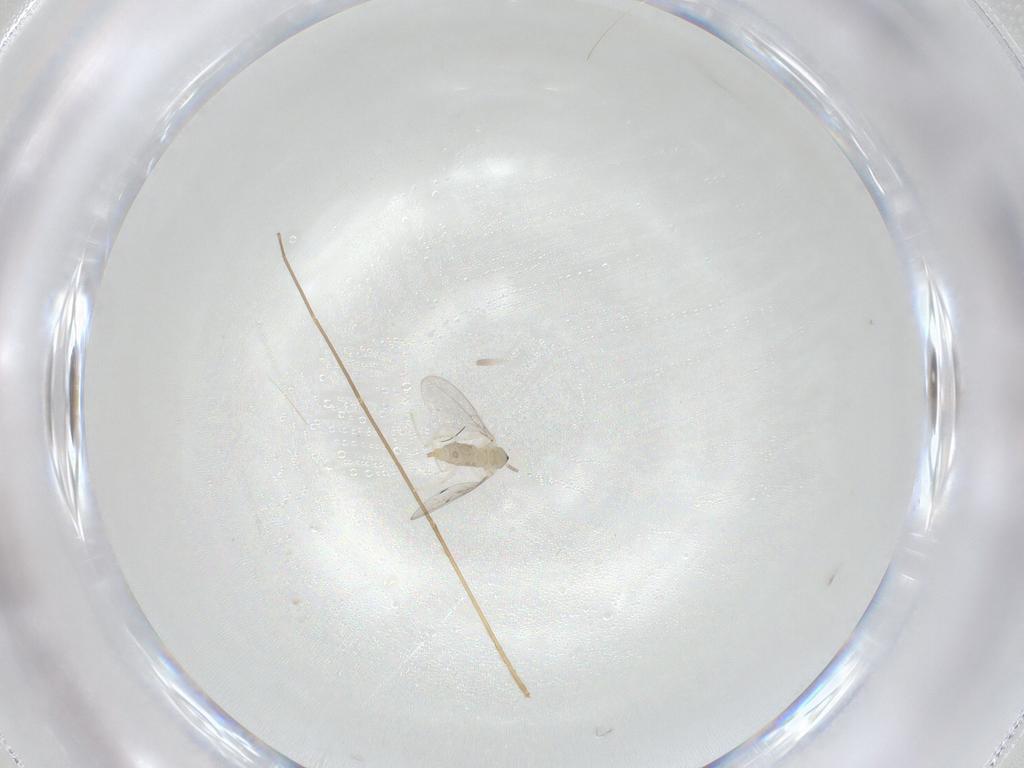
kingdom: Animalia
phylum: Arthropoda
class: Insecta
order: Diptera
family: Cecidomyiidae
